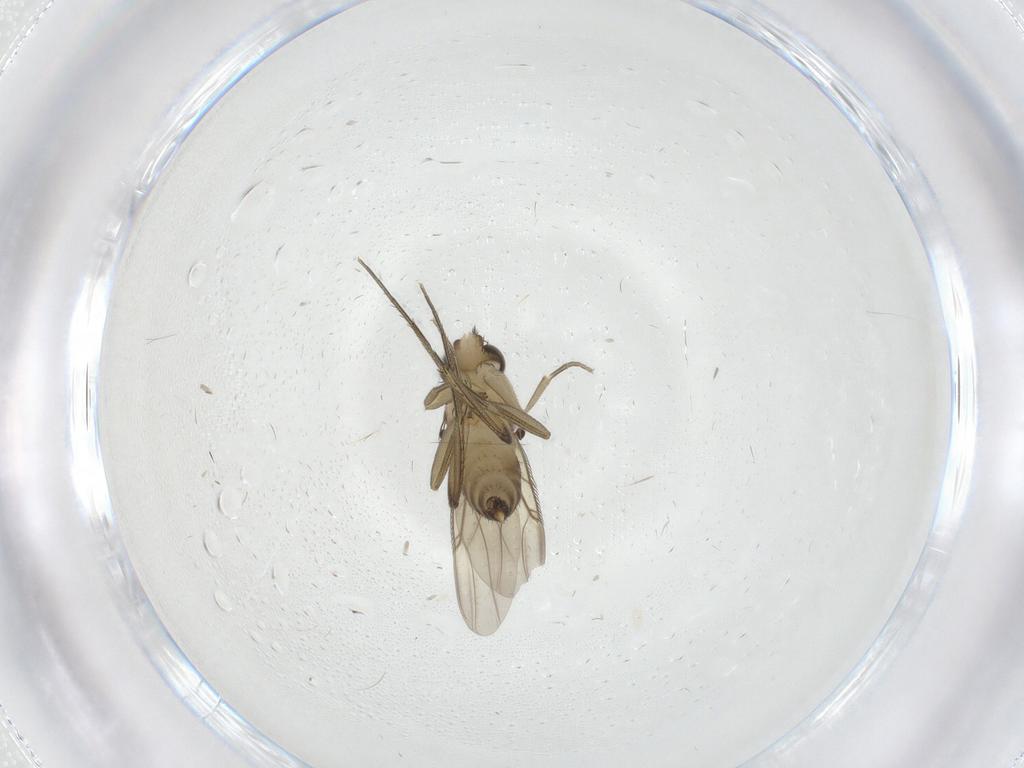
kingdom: Animalia
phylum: Arthropoda
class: Insecta
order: Diptera
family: Phoridae
